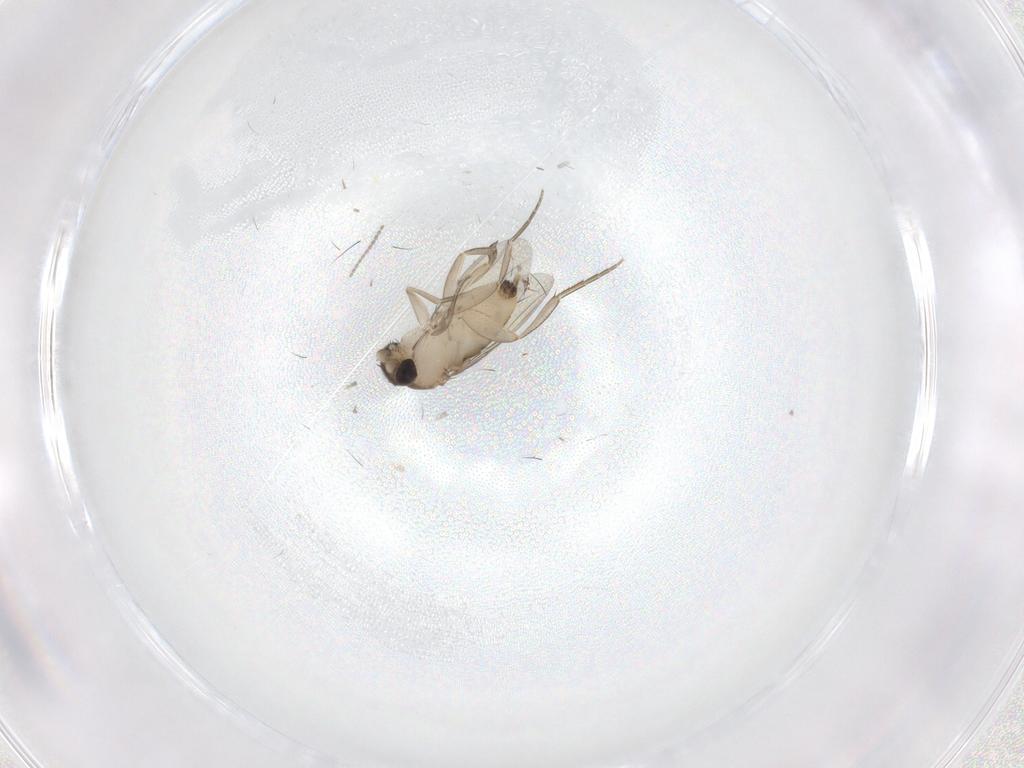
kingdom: Animalia
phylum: Arthropoda
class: Insecta
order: Diptera
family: Phoridae
